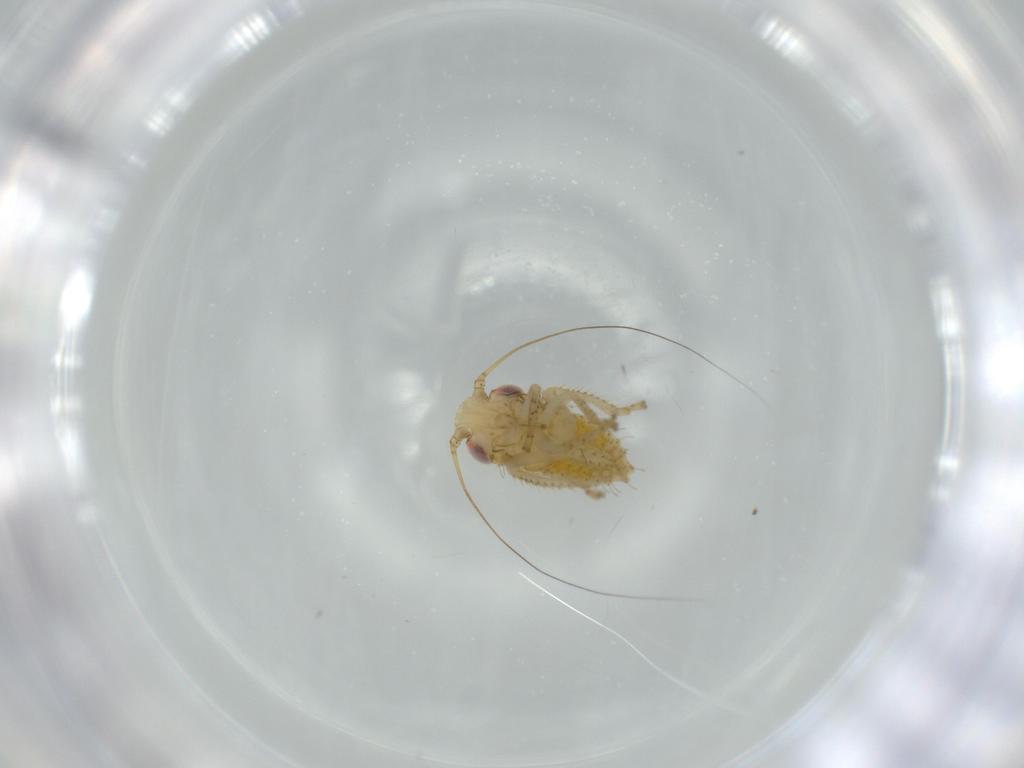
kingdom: Animalia
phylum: Arthropoda
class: Insecta
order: Hemiptera
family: Cicadellidae
